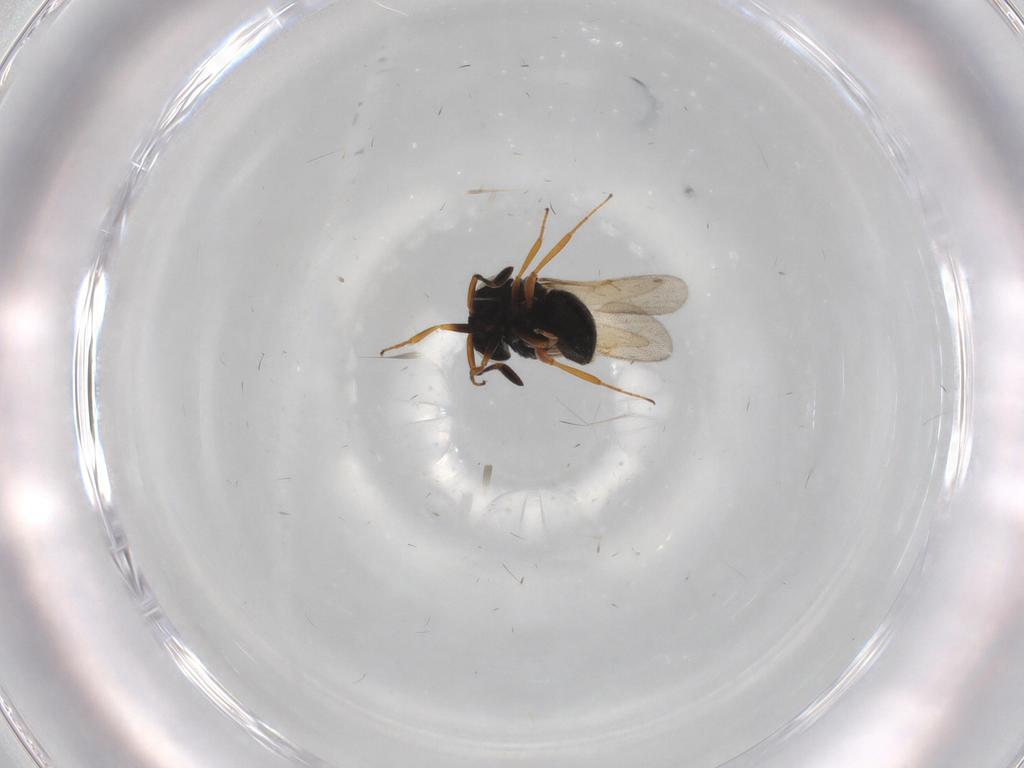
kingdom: Animalia
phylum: Arthropoda
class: Insecta
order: Hymenoptera
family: Scelionidae
